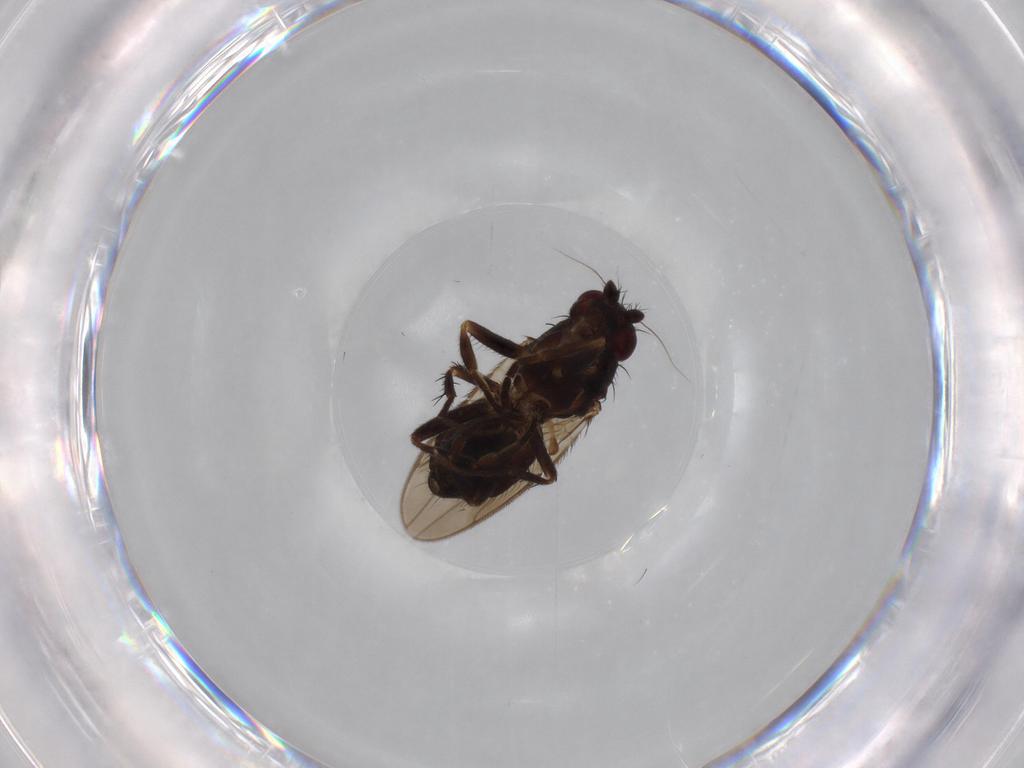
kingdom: Animalia
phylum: Arthropoda
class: Insecta
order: Diptera
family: Sphaeroceridae
